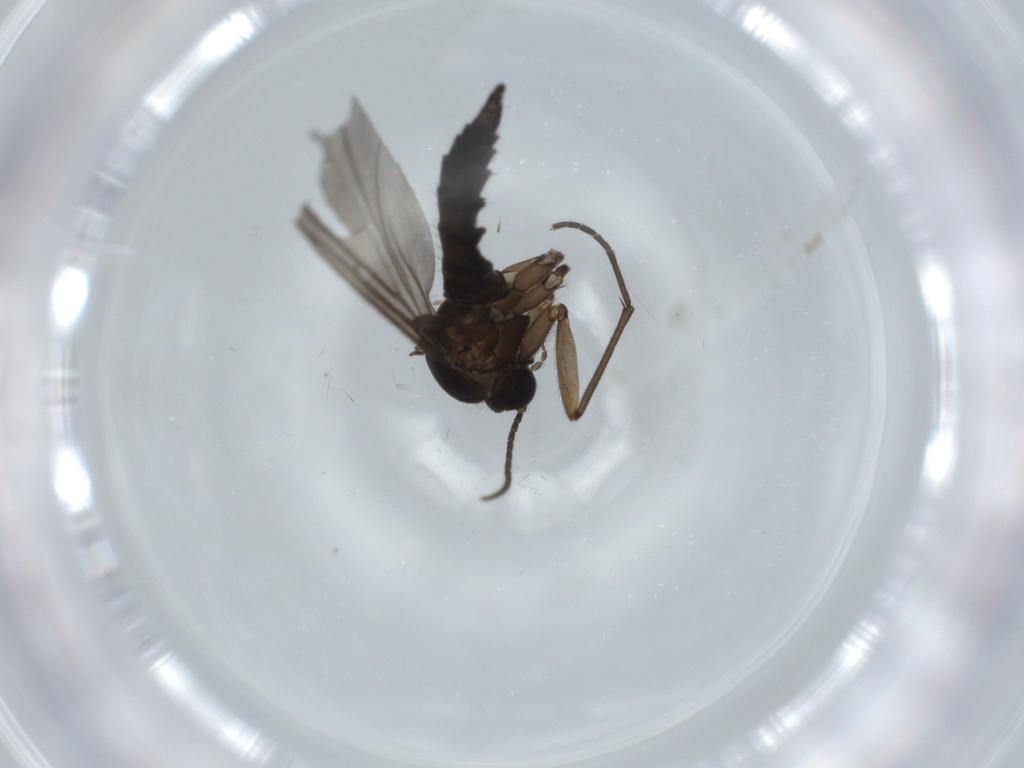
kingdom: Animalia
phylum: Arthropoda
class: Insecta
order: Diptera
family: Sciaridae
